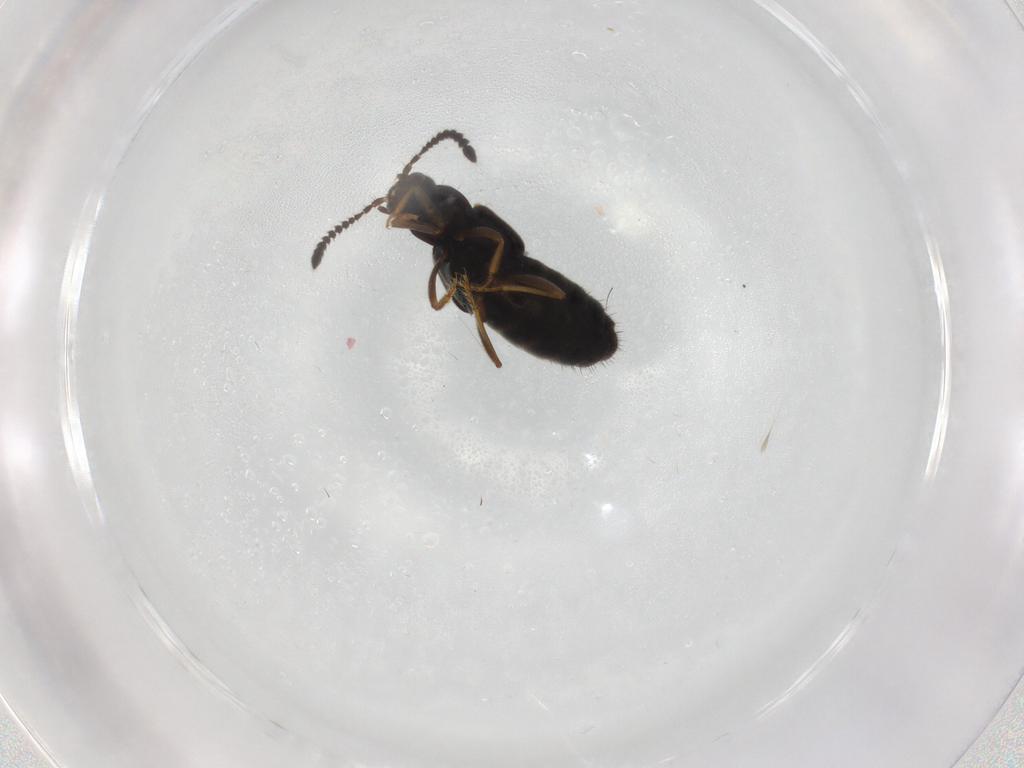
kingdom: Animalia
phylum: Arthropoda
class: Insecta
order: Coleoptera
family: Staphylinidae
